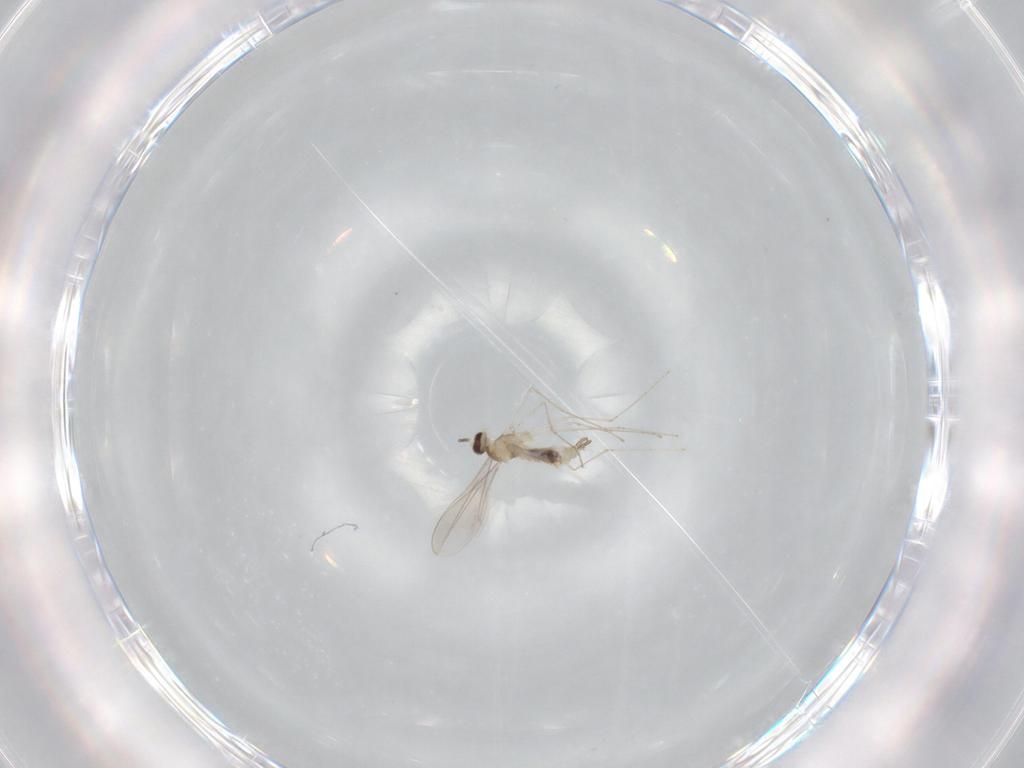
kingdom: Animalia
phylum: Arthropoda
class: Insecta
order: Diptera
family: Cecidomyiidae
